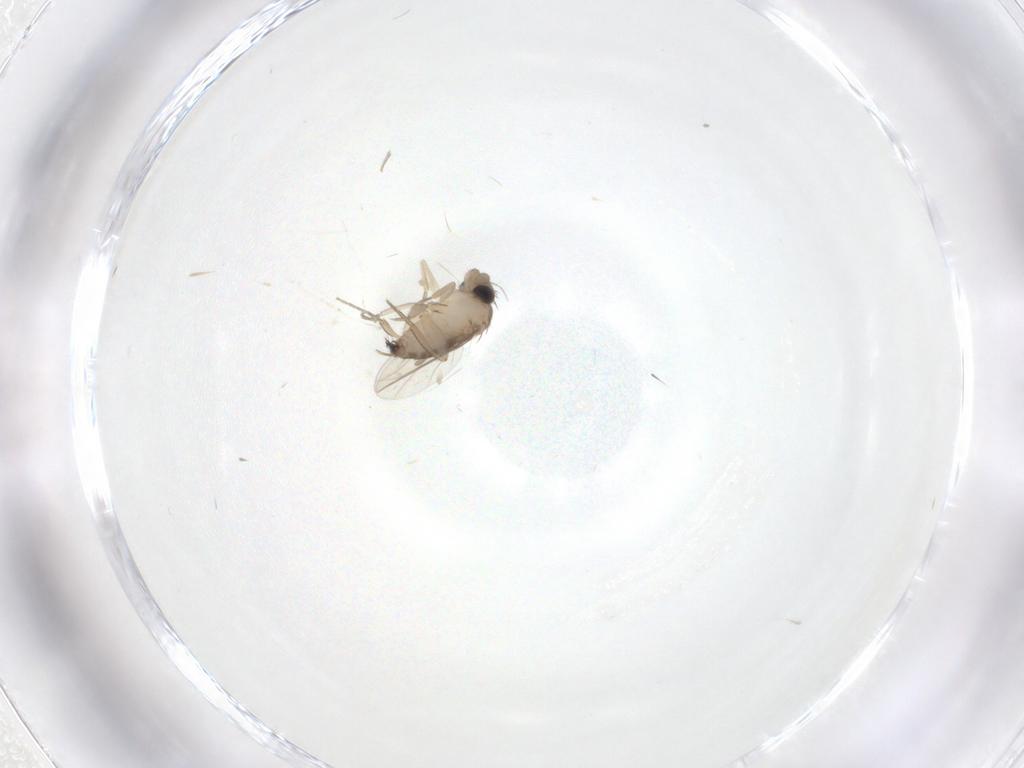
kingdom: Animalia
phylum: Arthropoda
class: Insecta
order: Diptera
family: Phoridae
